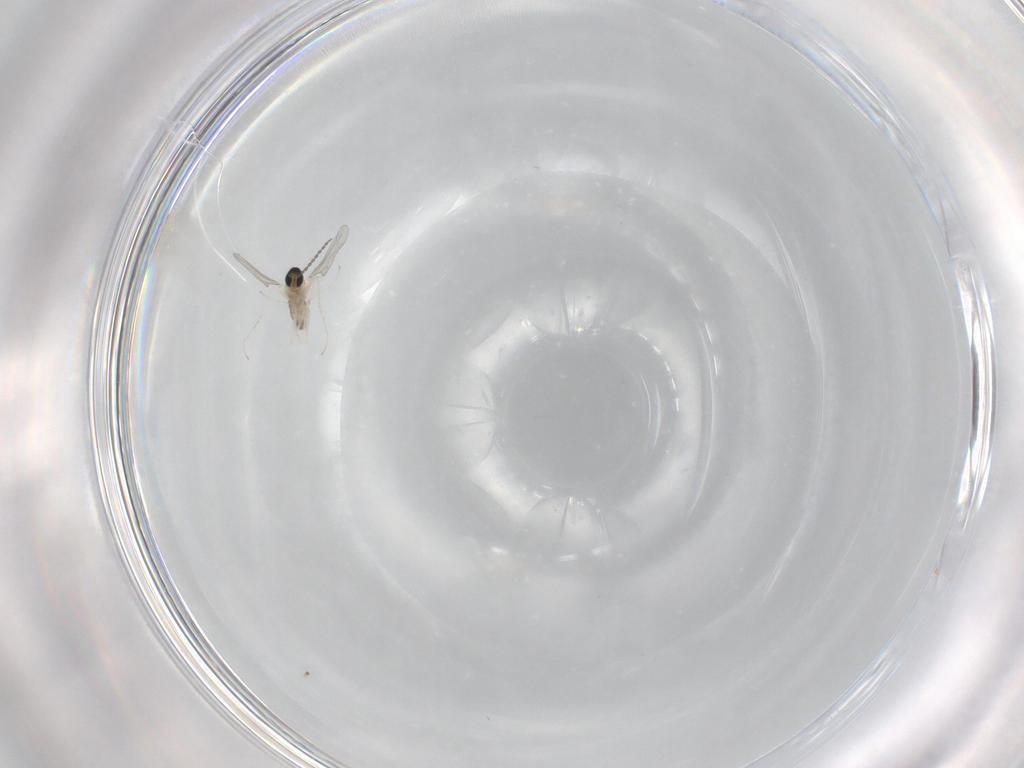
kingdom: Animalia
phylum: Arthropoda
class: Insecta
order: Diptera
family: Cecidomyiidae
